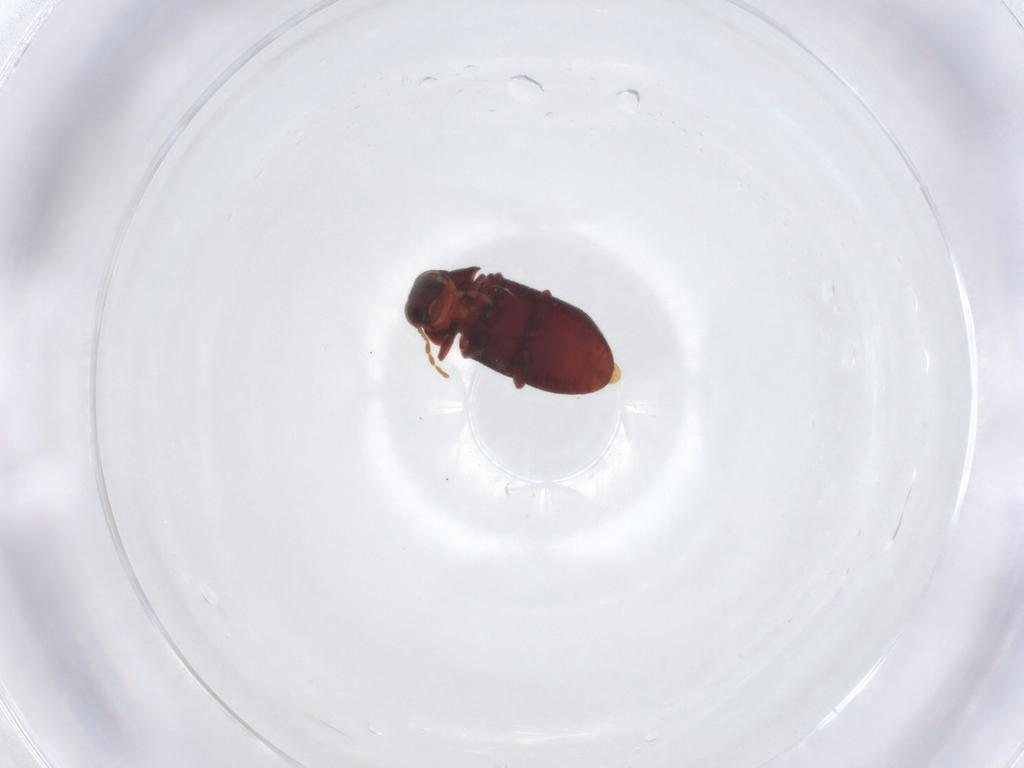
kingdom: Animalia
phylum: Arthropoda
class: Insecta
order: Coleoptera
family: Ptinidae
